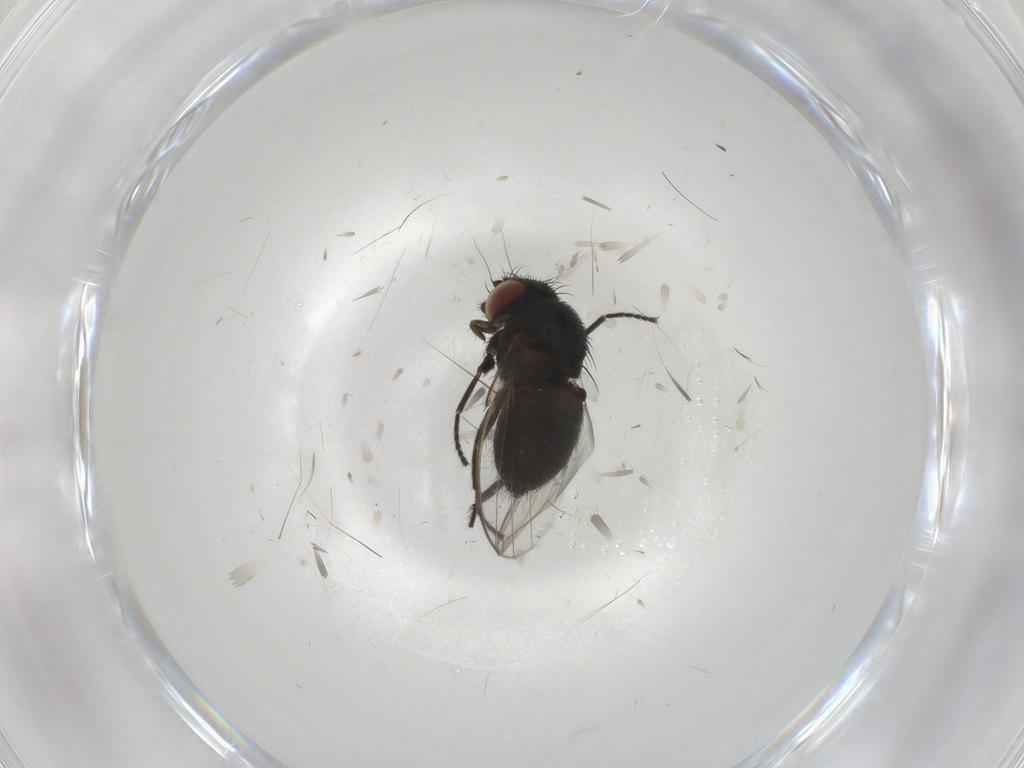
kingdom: Animalia
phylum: Arthropoda
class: Insecta
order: Diptera
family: Milichiidae
